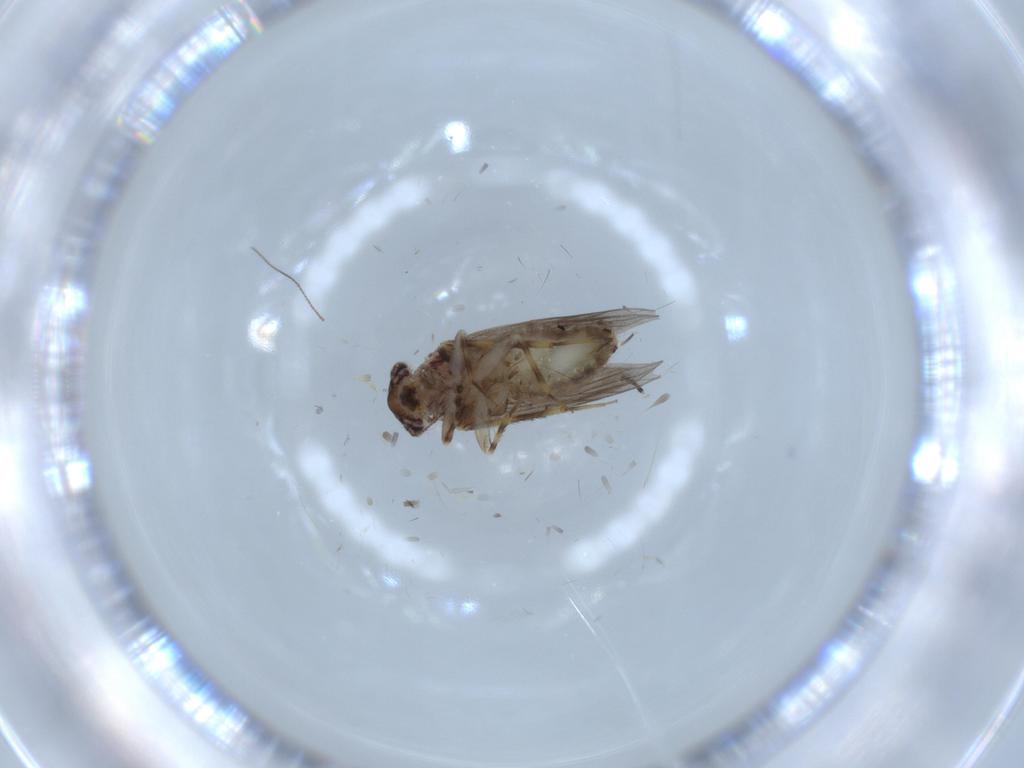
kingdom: Animalia
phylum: Arthropoda
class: Insecta
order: Psocodea
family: Lepidopsocidae
